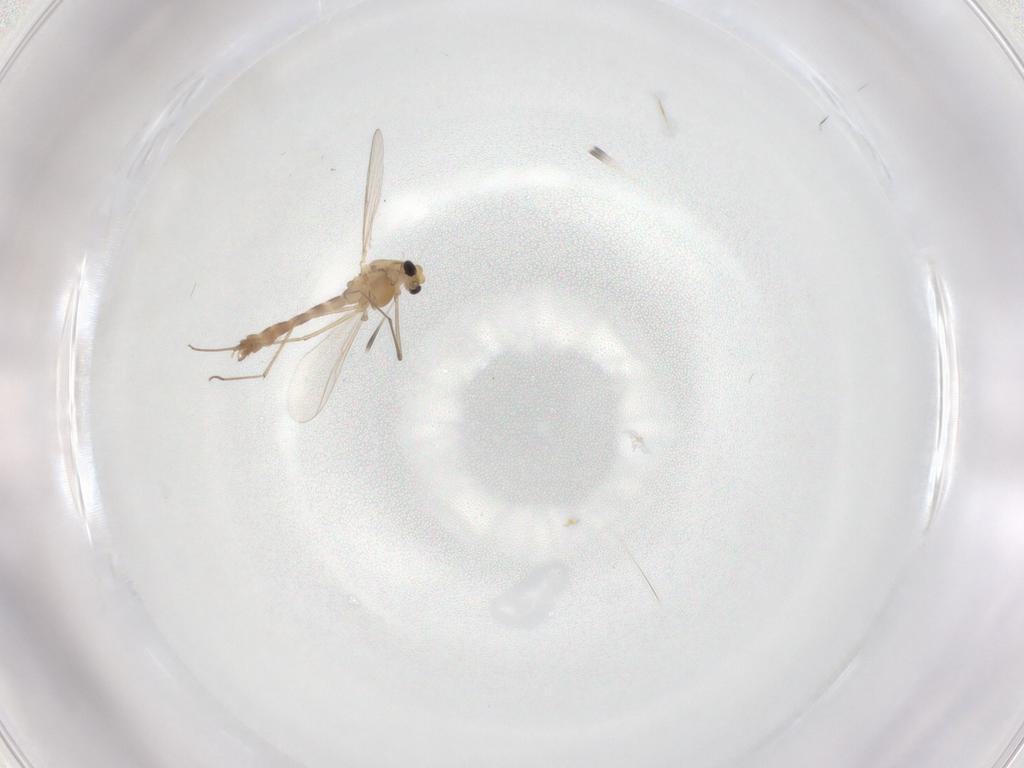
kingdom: Animalia
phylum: Arthropoda
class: Insecta
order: Diptera
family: Chironomidae
